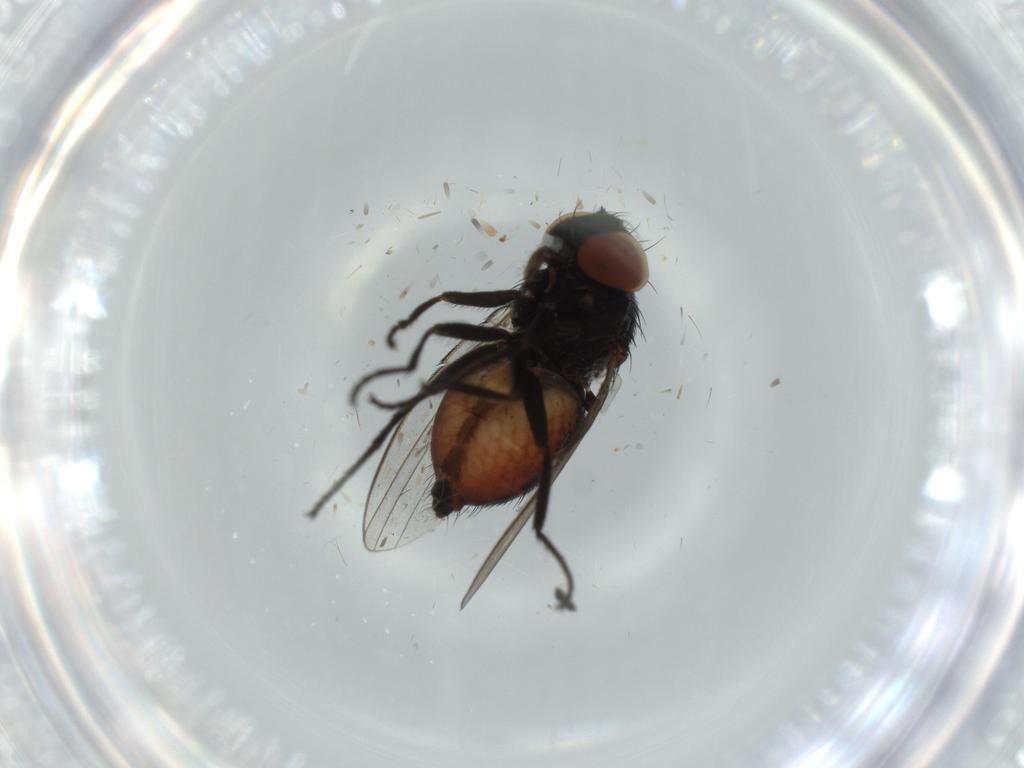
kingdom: Animalia
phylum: Arthropoda
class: Insecta
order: Diptera
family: Milichiidae
